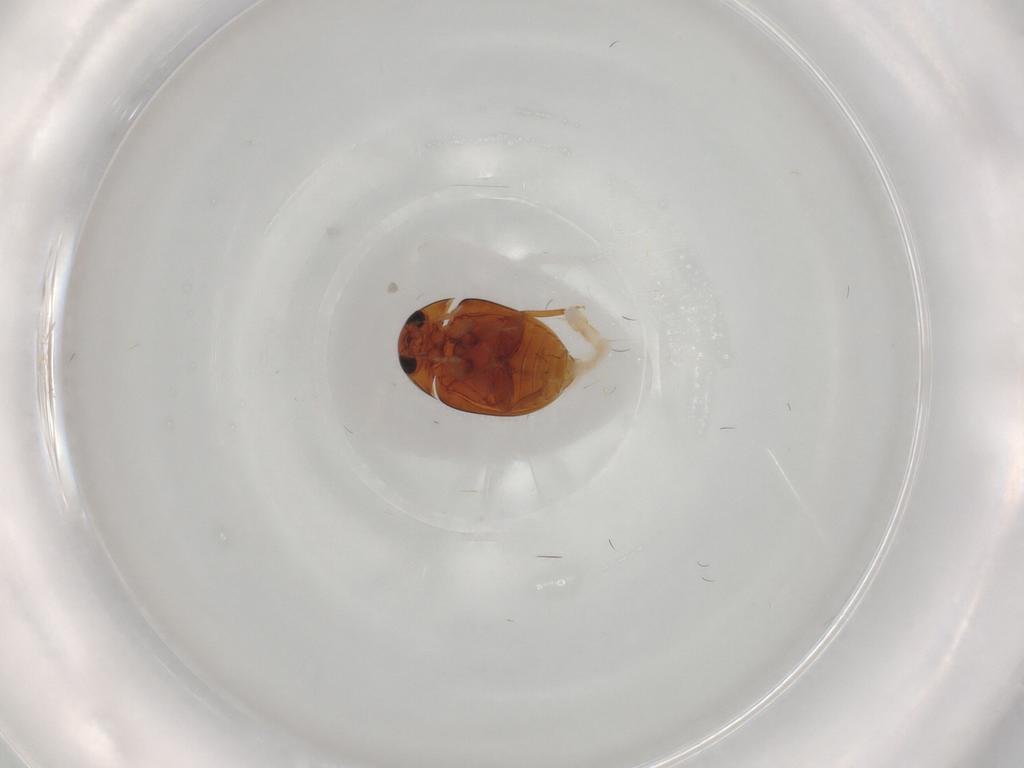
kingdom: Animalia
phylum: Arthropoda
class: Insecta
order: Coleoptera
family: Phalacridae
